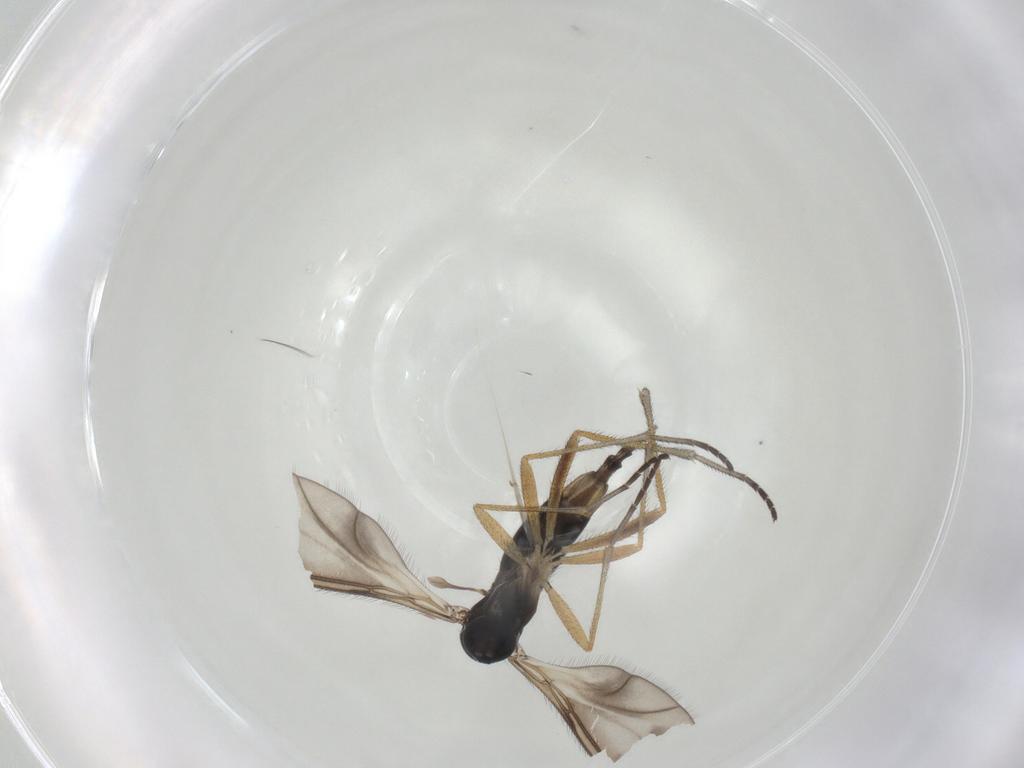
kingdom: Animalia
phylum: Arthropoda
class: Insecta
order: Diptera
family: Sciaridae
